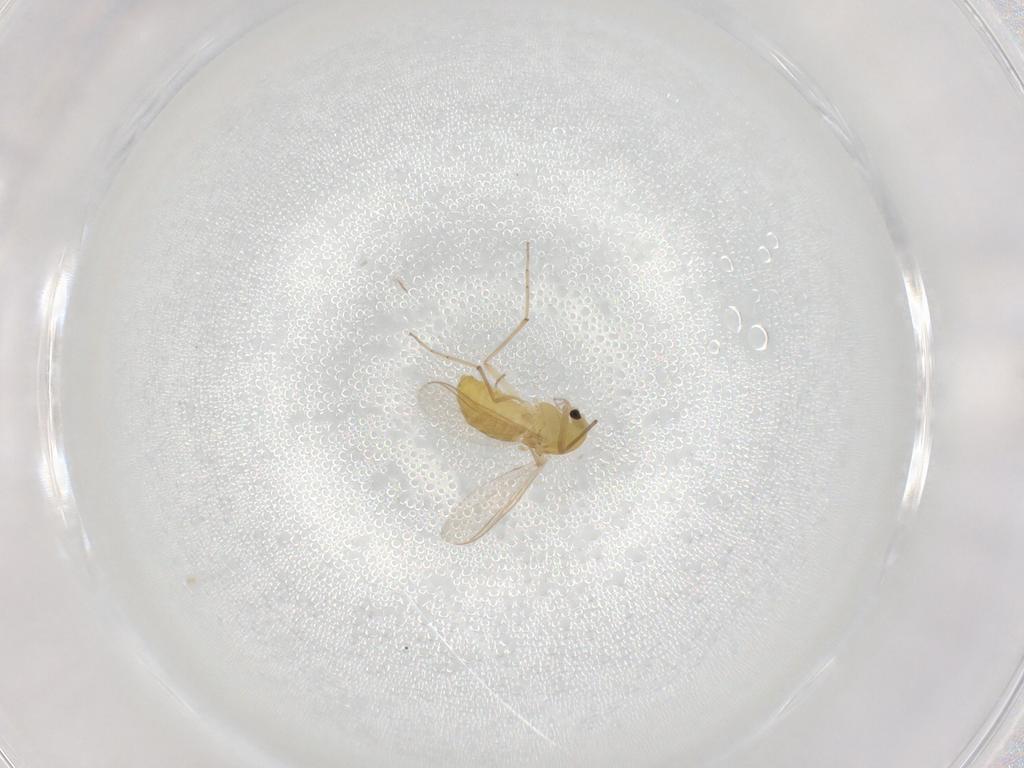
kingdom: Animalia
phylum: Arthropoda
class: Insecta
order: Diptera
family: Chironomidae
